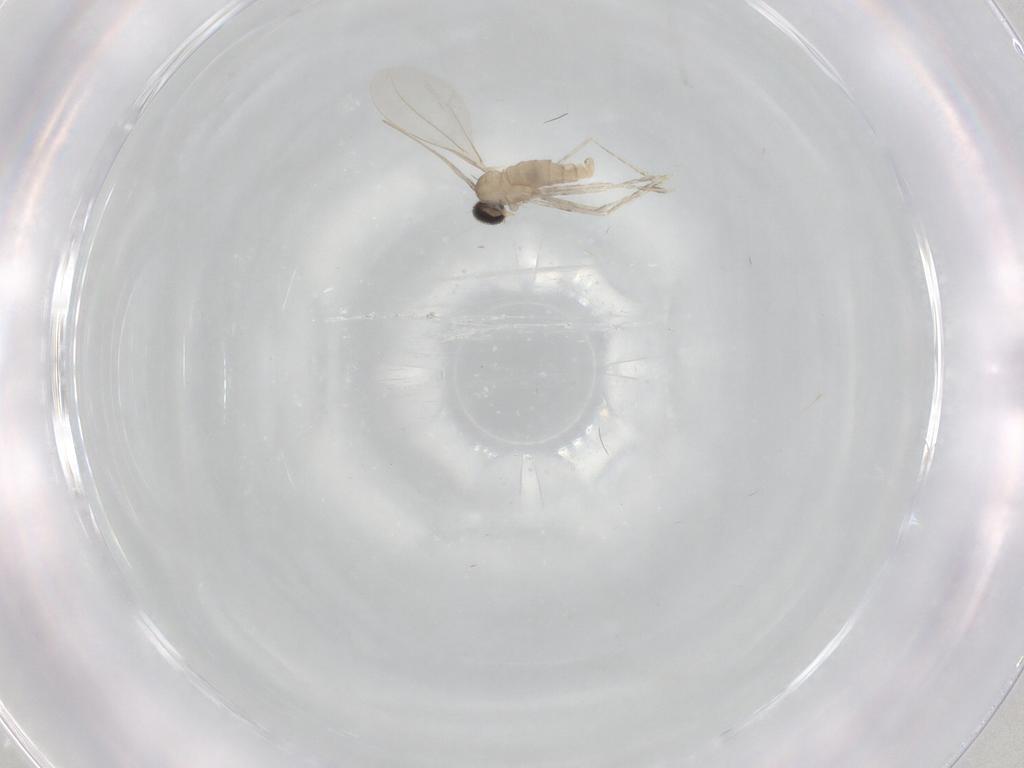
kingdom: Animalia
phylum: Arthropoda
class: Insecta
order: Diptera
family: Cecidomyiidae
